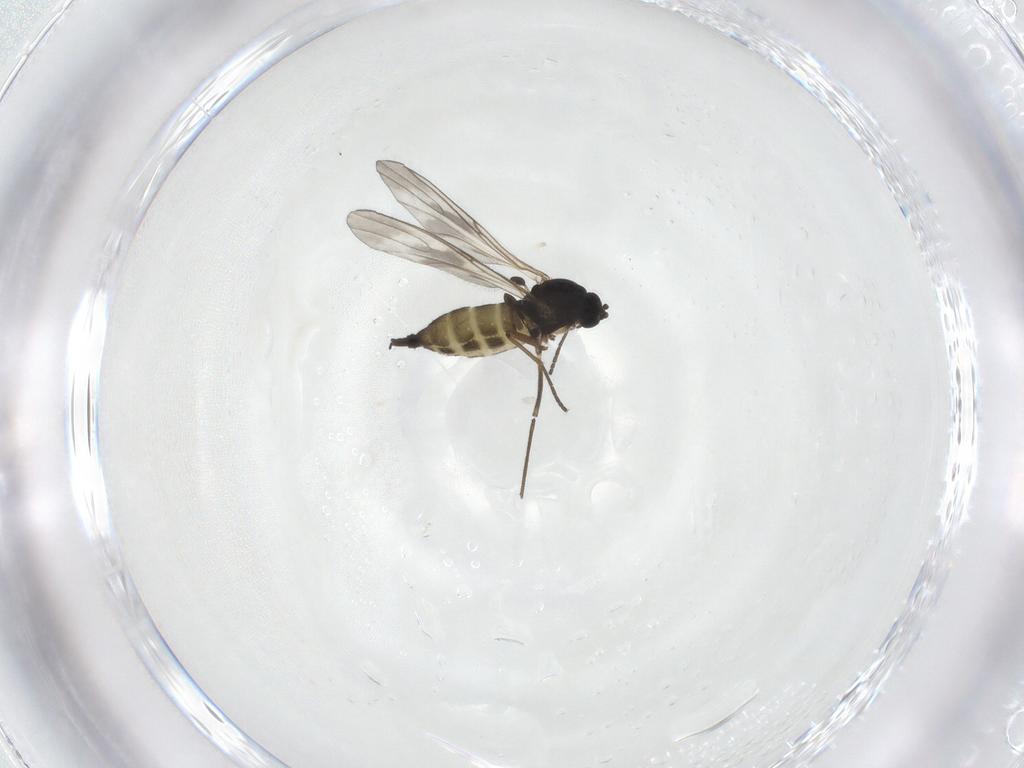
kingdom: Animalia
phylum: Arthropoda
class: Insecta
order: Diptera
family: Sciaridae
